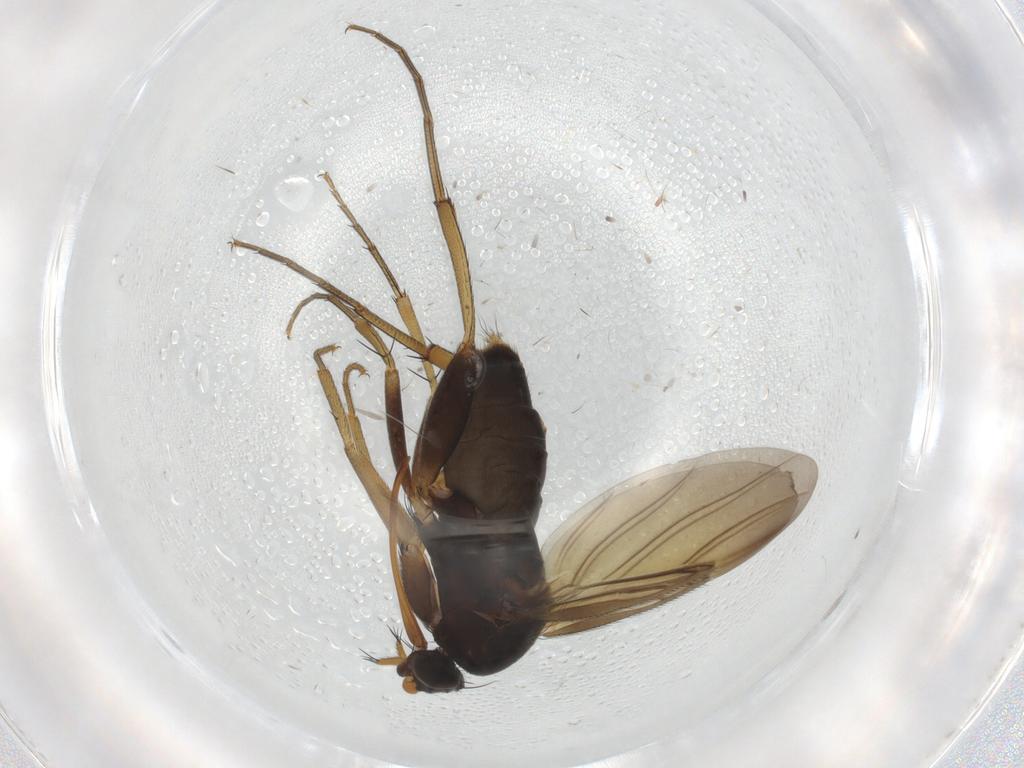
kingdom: Animalia
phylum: Arthropoda
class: Insecta
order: Diptera
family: Phoridae
